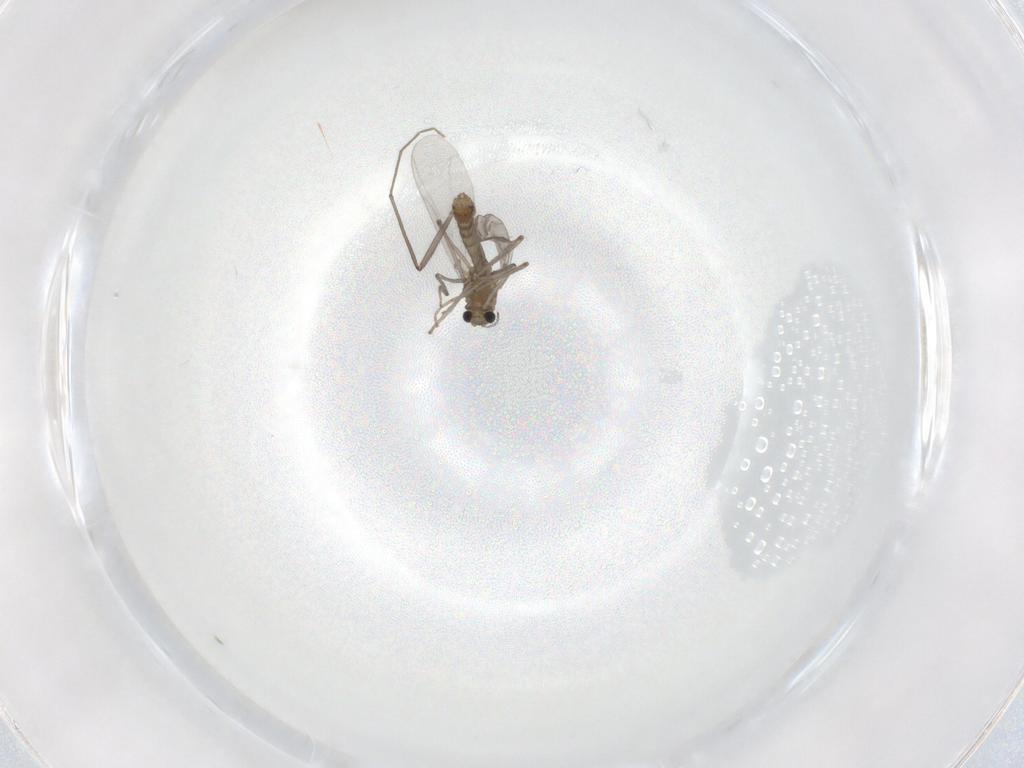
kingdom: Animalia
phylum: Arthropoda
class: Insecta
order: Diptera
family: Chironomidae
